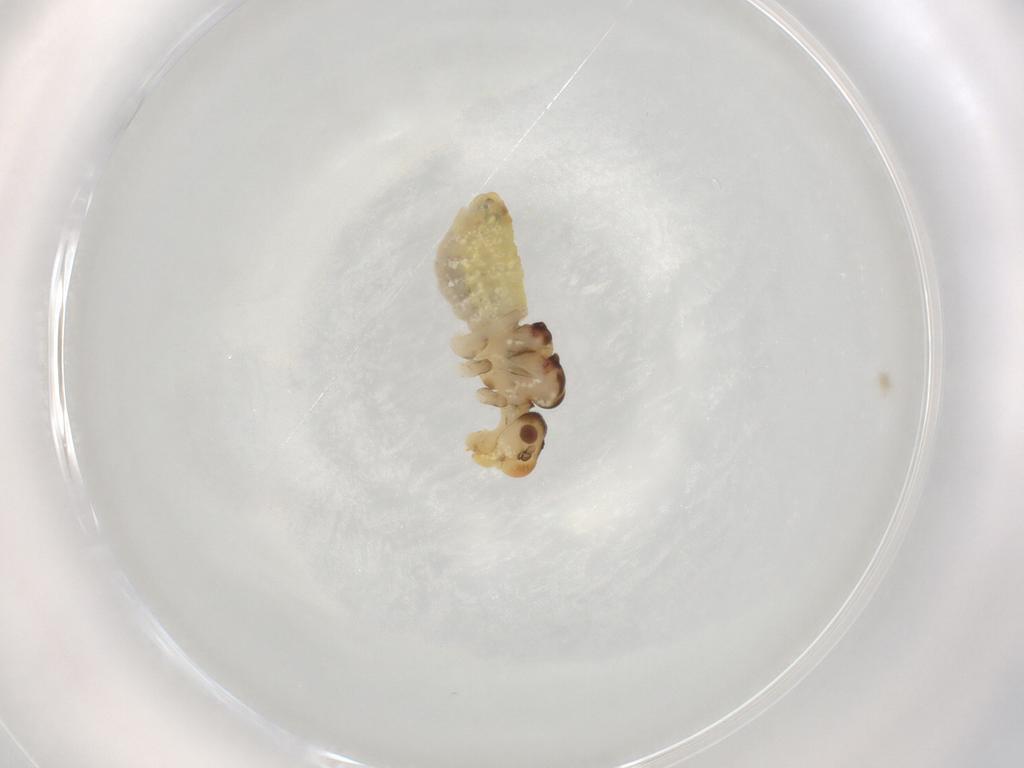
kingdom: Animalia
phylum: Arthropoda
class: Insecta
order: Psocodea
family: Caeciliusidae
